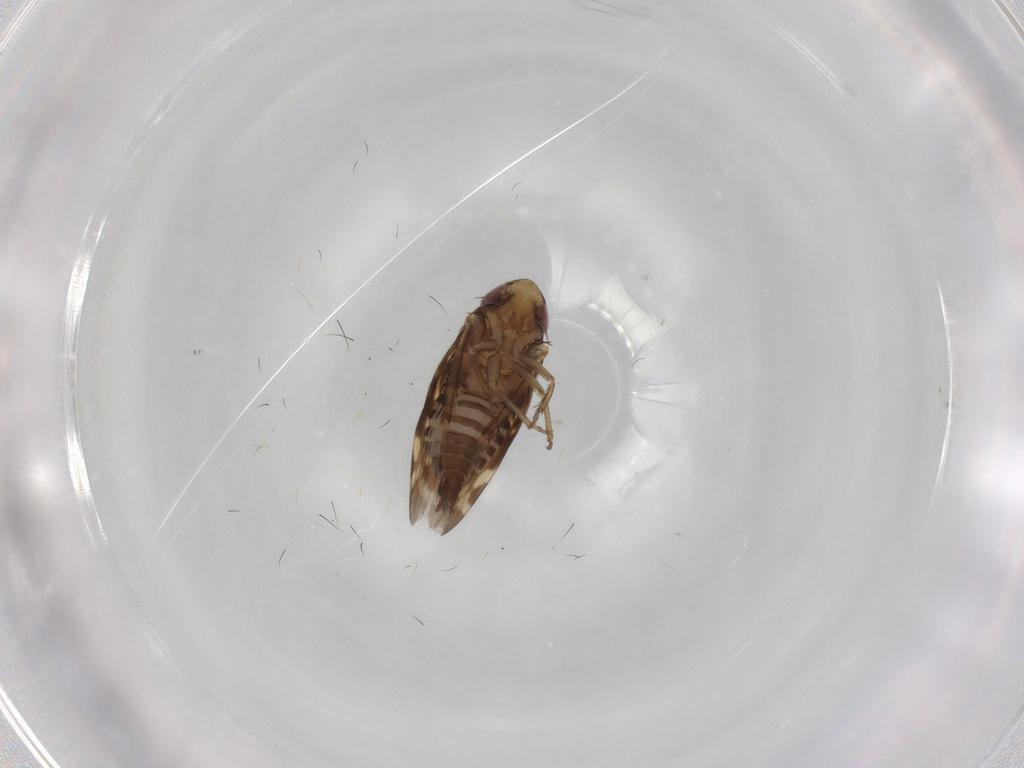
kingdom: Animalia
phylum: Arthropoda
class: Insecta
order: Hemiptera
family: Cicadellidae
